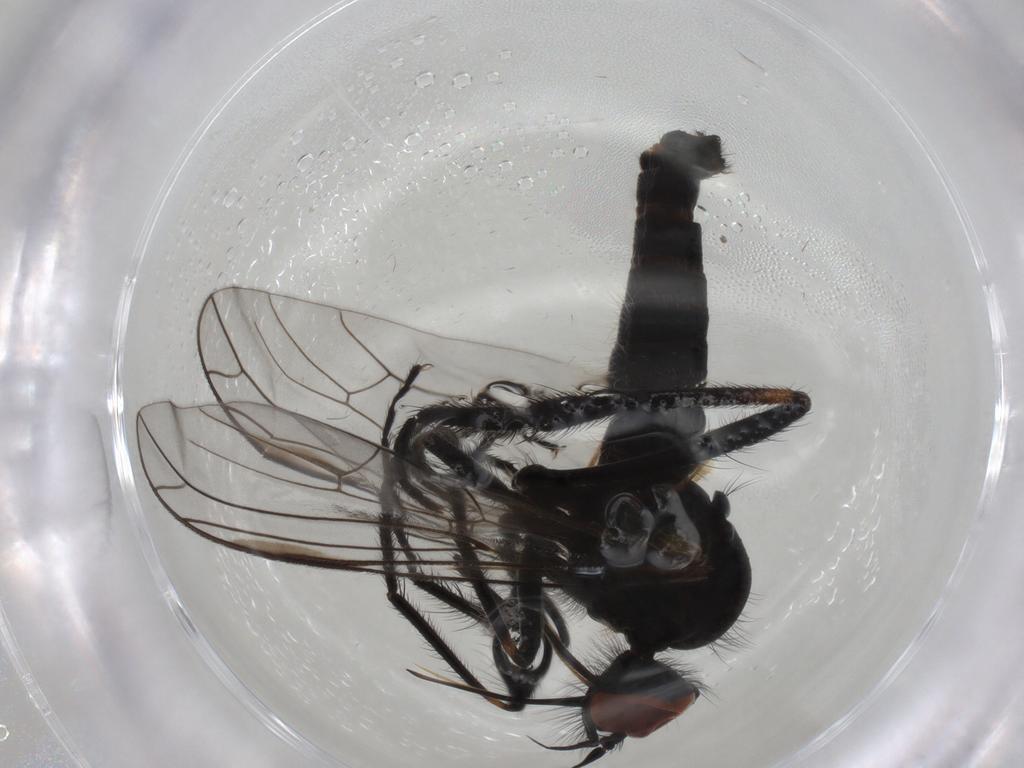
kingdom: Animalia
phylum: Arthropoda
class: Insecta
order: Diptera
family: Empididae
